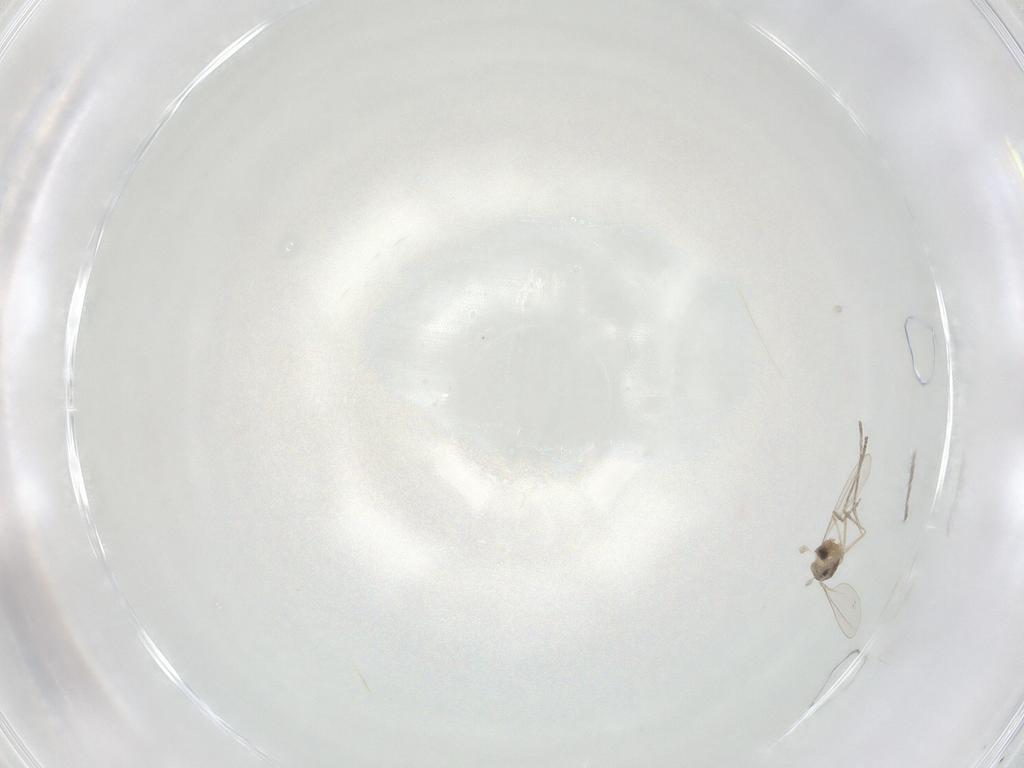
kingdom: Animalia
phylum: Arthropoda
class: Insecta
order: Diptera
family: Cecidomyiidae
